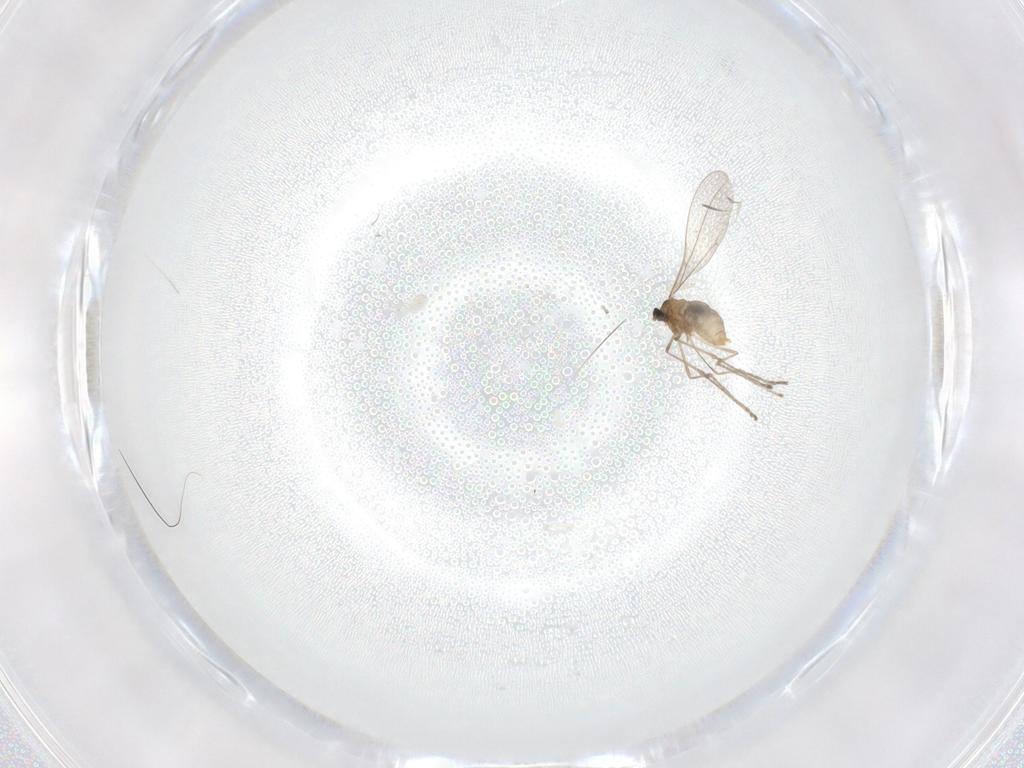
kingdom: Animalia
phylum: Arthropoda
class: Insecta
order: Diptera
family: Cecidomyiidae
